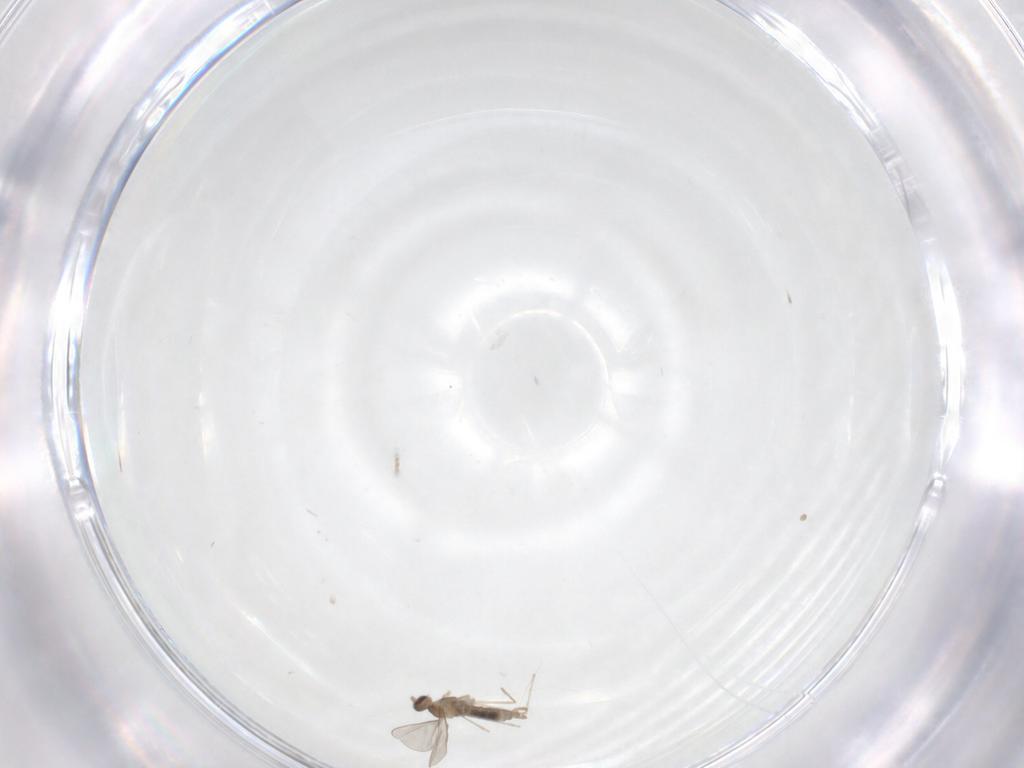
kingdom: Animalia
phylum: Arthropoda
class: Insecta
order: Diptera
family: Cecidomyiidae
